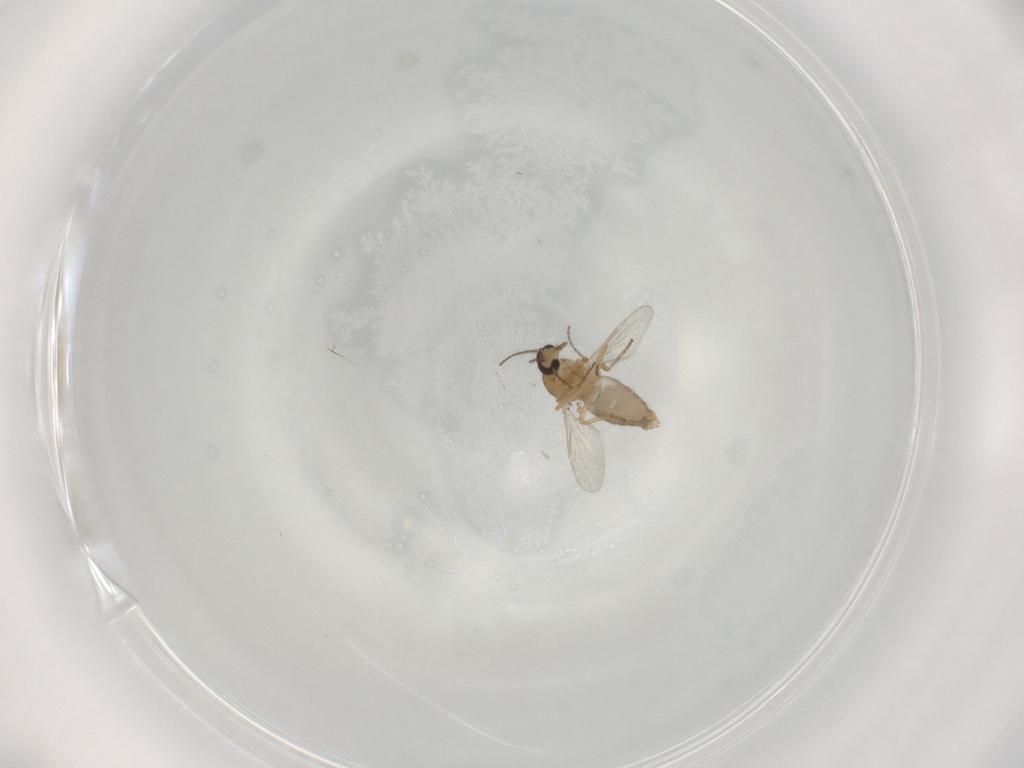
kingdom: Animalia
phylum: Arthropoda
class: Insecta
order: Diptera
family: Ceratopogonidae
